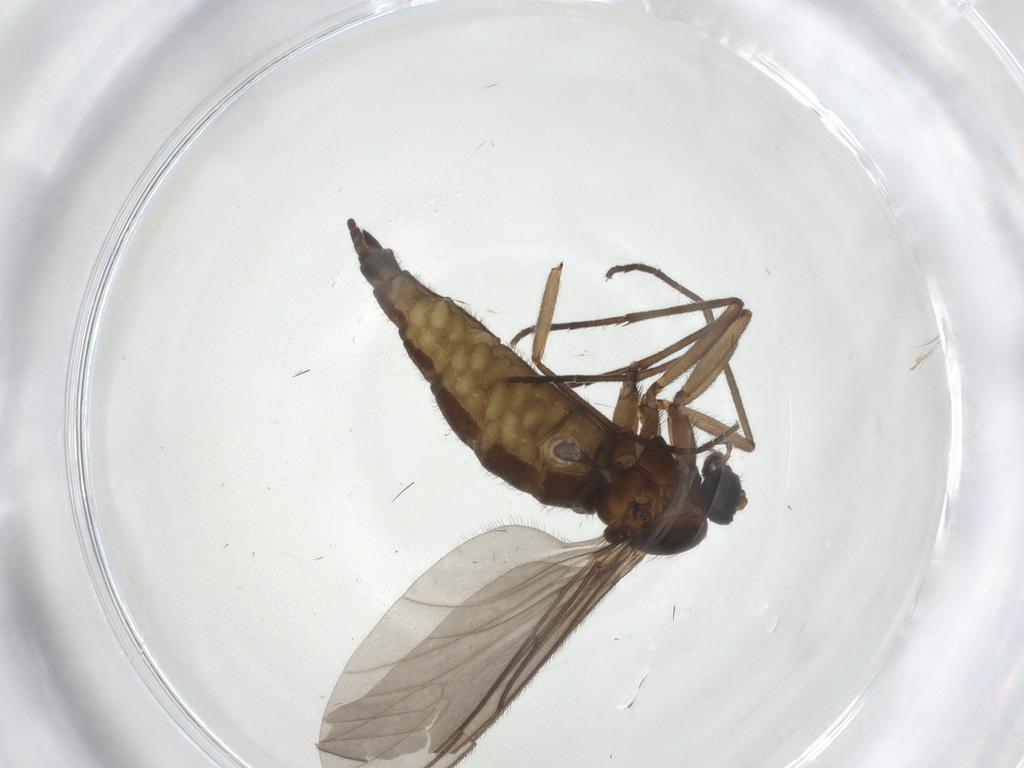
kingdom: Animalia
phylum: Arthropoda
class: Insecta
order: Diptera
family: Sciaridae
